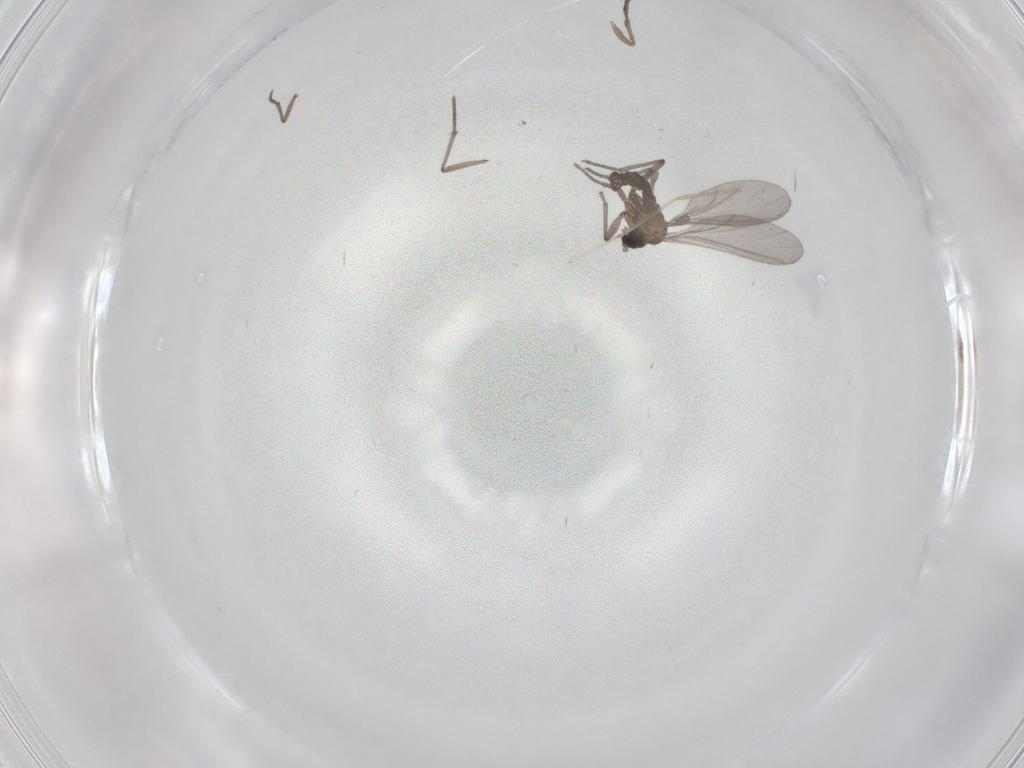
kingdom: Animalia
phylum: Arthropoda
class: Insecta
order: Diptera
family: Sciaridae
